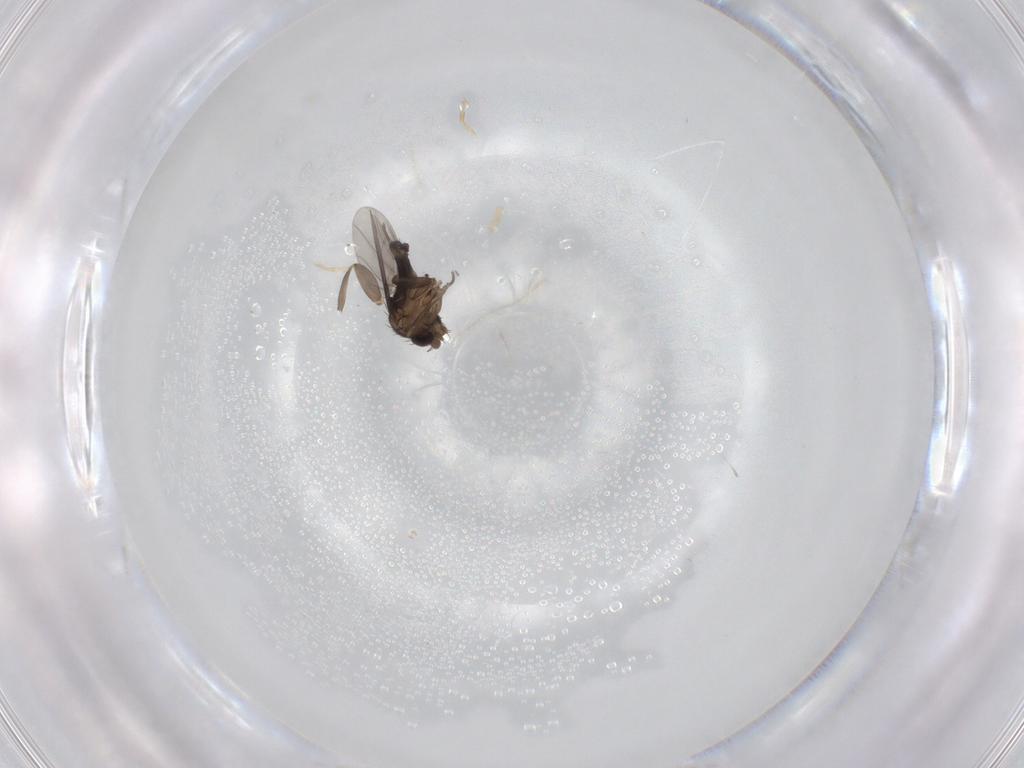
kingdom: Animalia
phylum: Arthropoda
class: Insecta
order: Diptera
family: Phoridae
